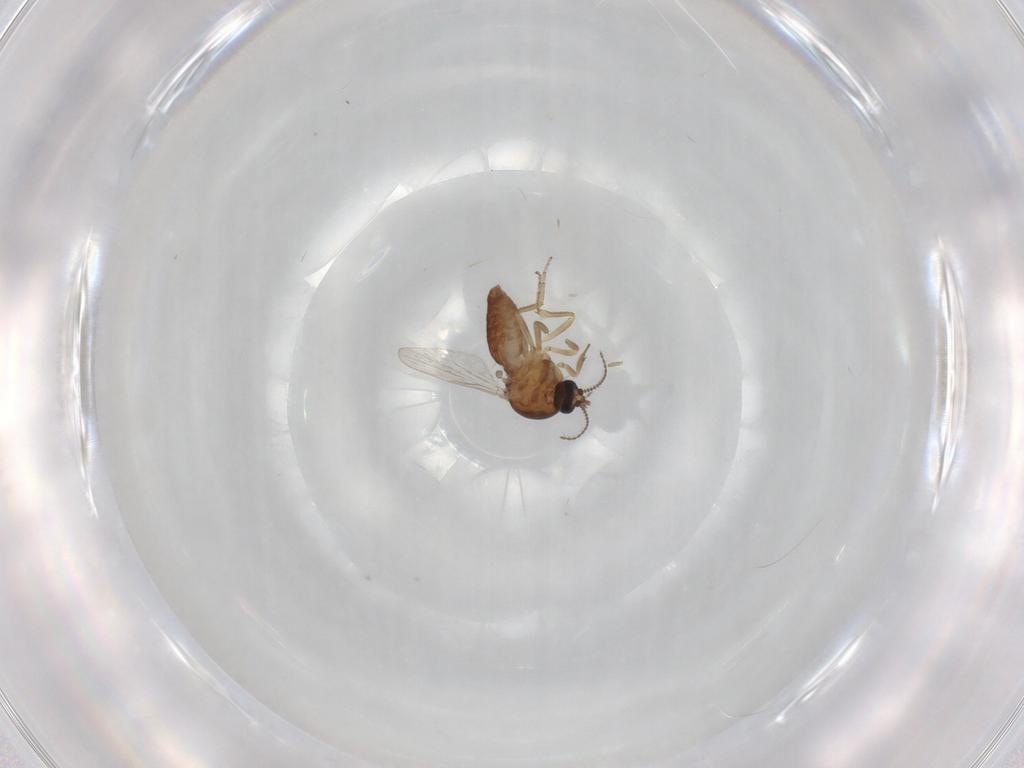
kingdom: Animalia
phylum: Arthropoda
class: Insecta
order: Diptera
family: Ceratopogonidae
